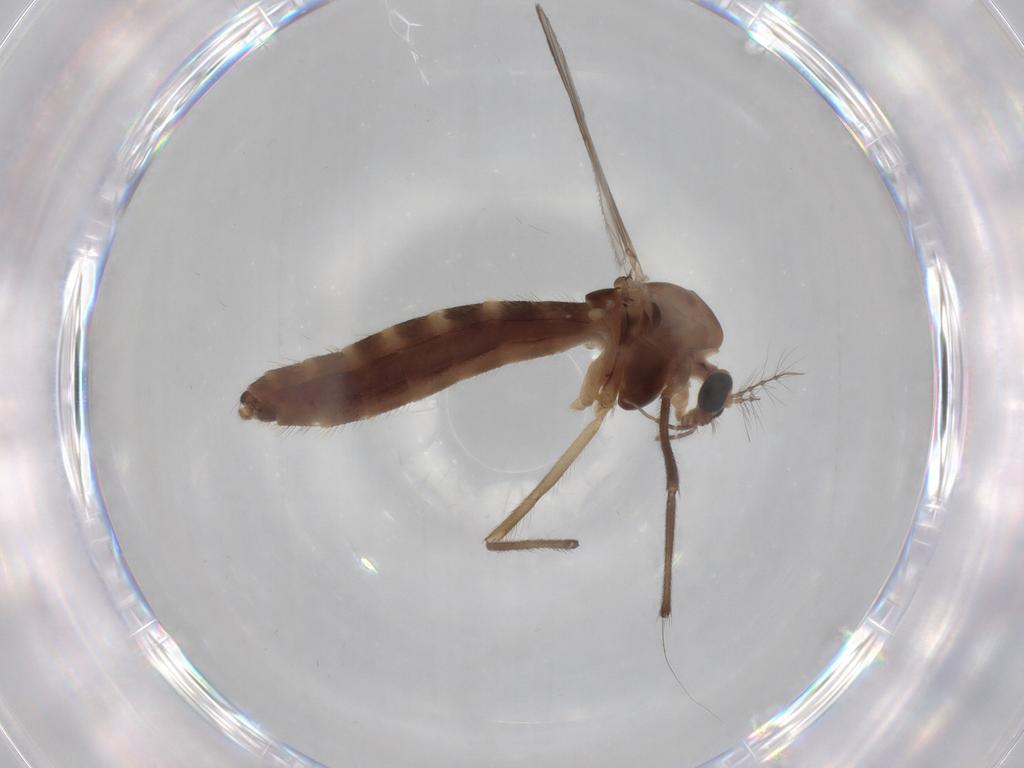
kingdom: Animalia
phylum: Arthropoda
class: Insecta
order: Diptera
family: Chironomidae
